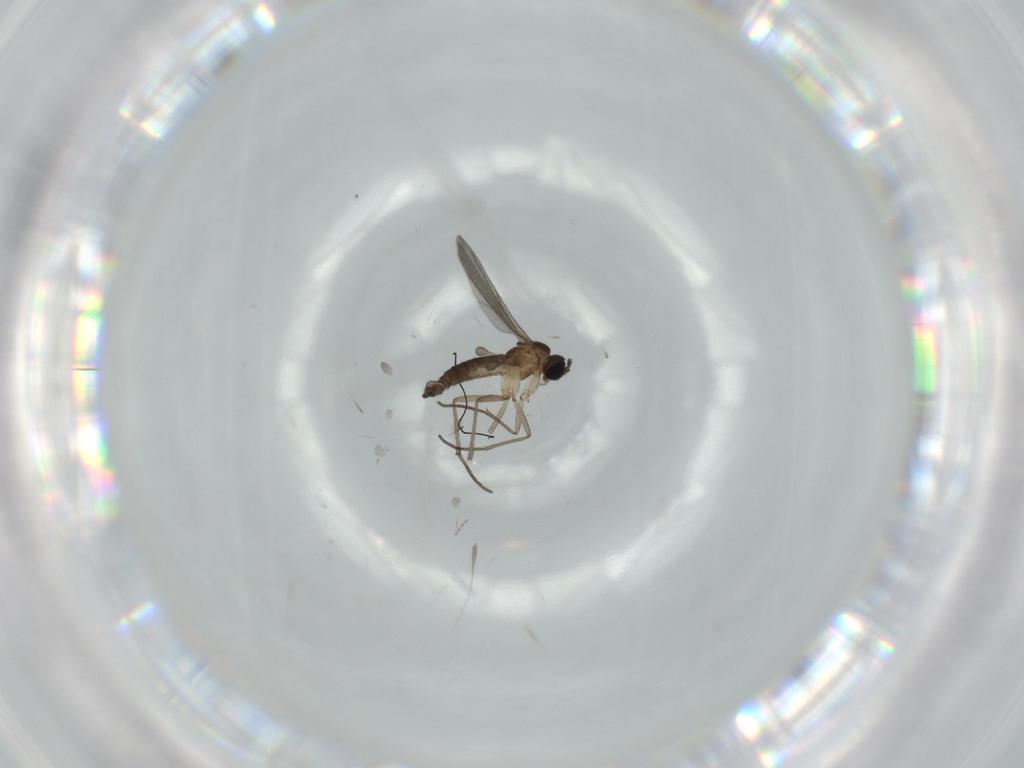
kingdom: Animalia
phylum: Arthropoda
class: Insecta
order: Diptera
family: Sciaridae
